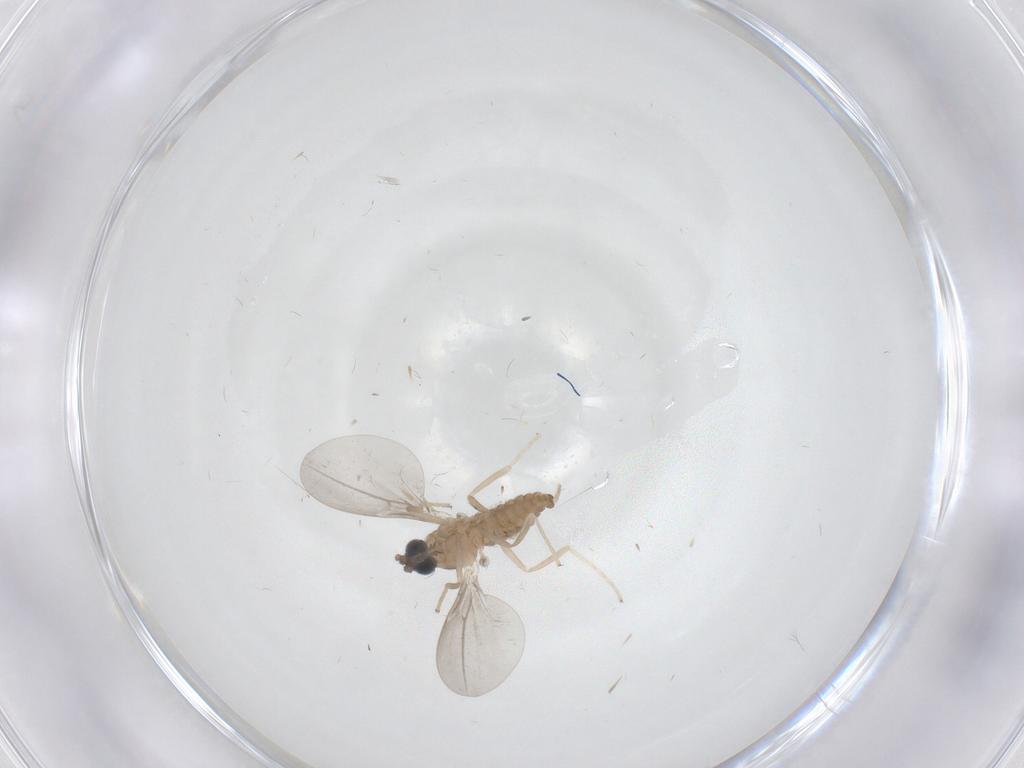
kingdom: Animalia
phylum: Arthropoda
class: Insecta
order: Diptera
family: Cecidomyiidae
